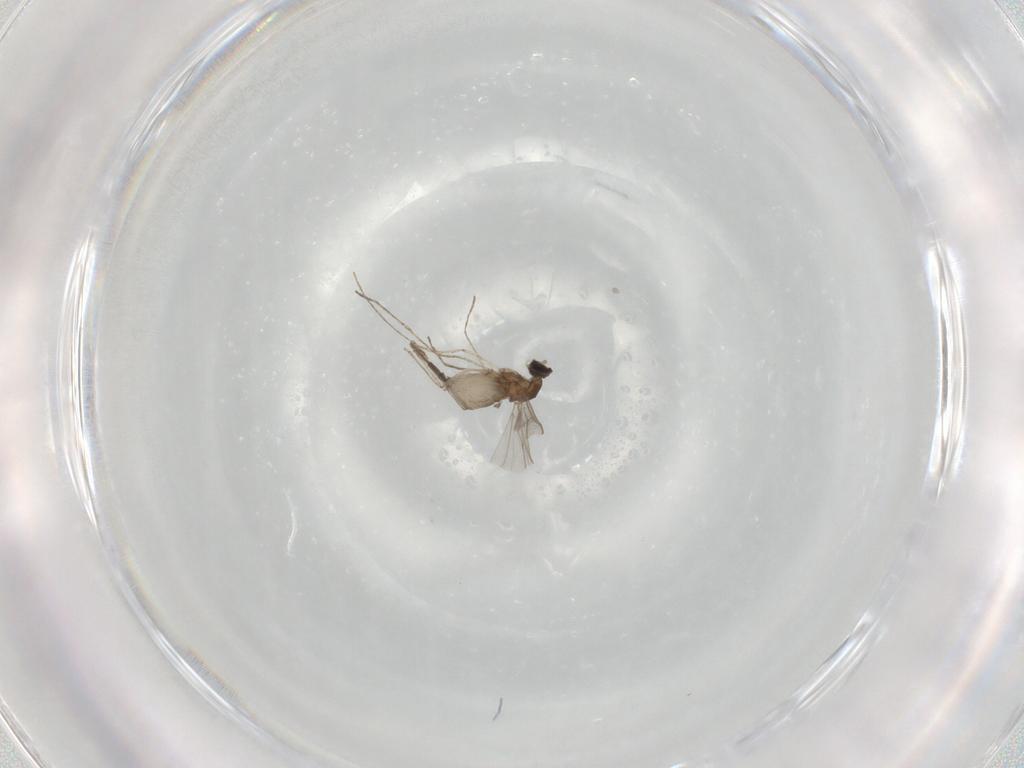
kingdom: Animalia
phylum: Arthropoda
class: Insecta
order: Diptera
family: Cecidomyiidae
